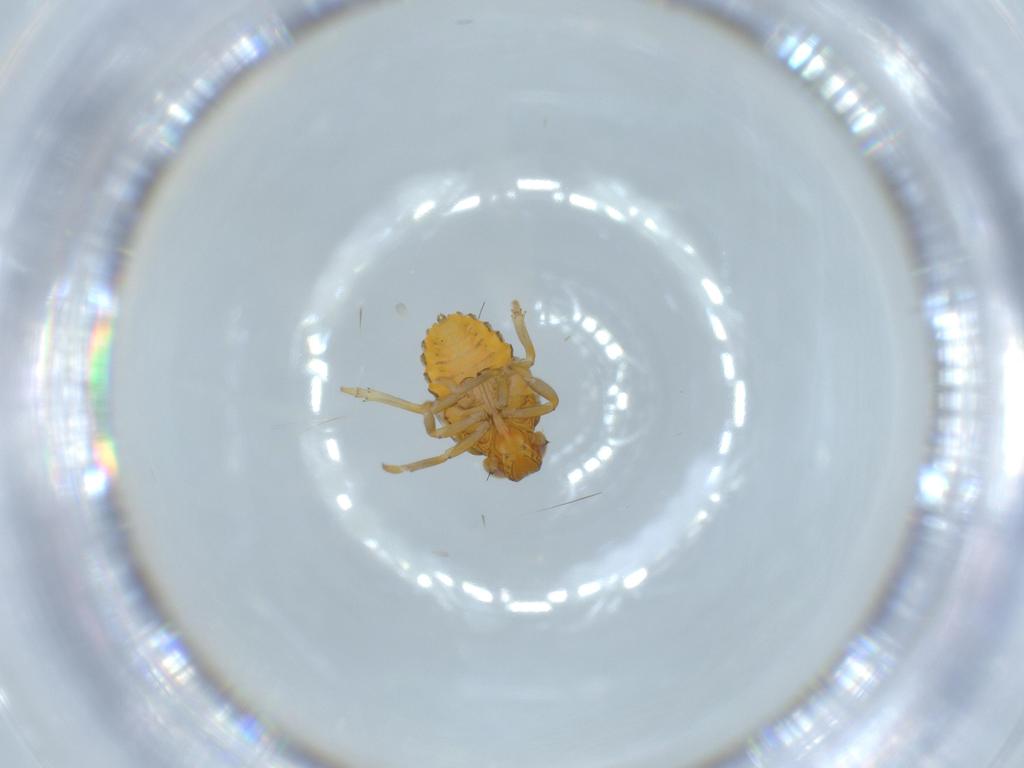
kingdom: Animalia
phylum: Arthropoda
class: Insecta
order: Hemiptera
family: Issidae
